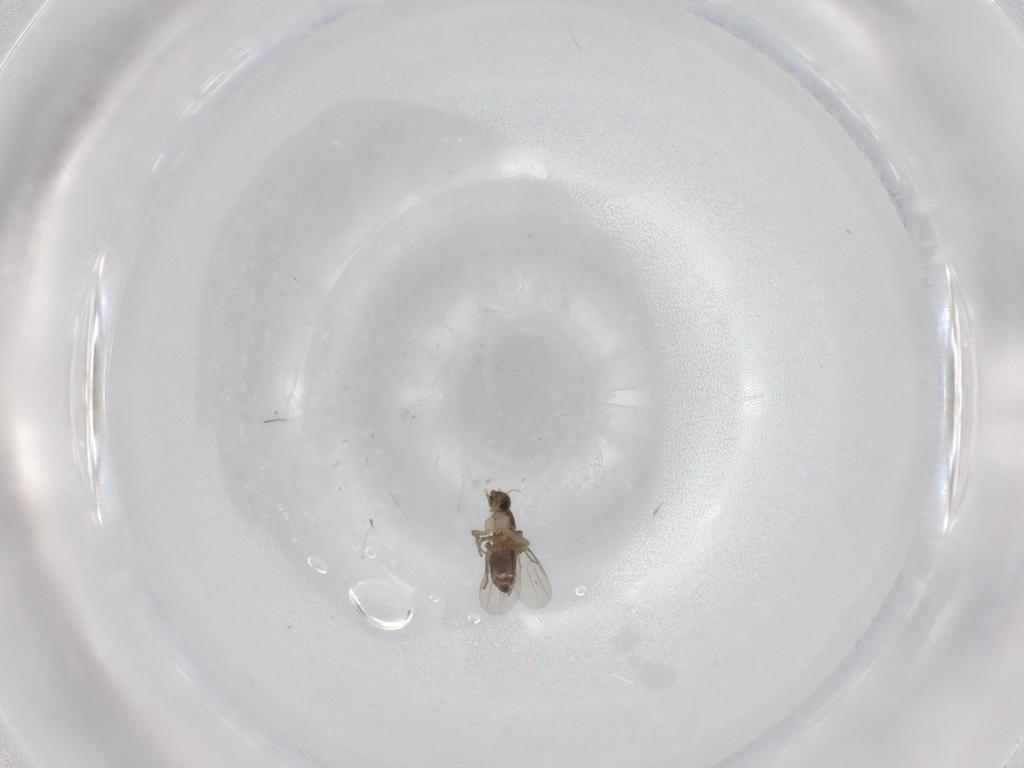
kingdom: Animalia
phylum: Arthropoda
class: Insecta
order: Diptera
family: Phoridae
